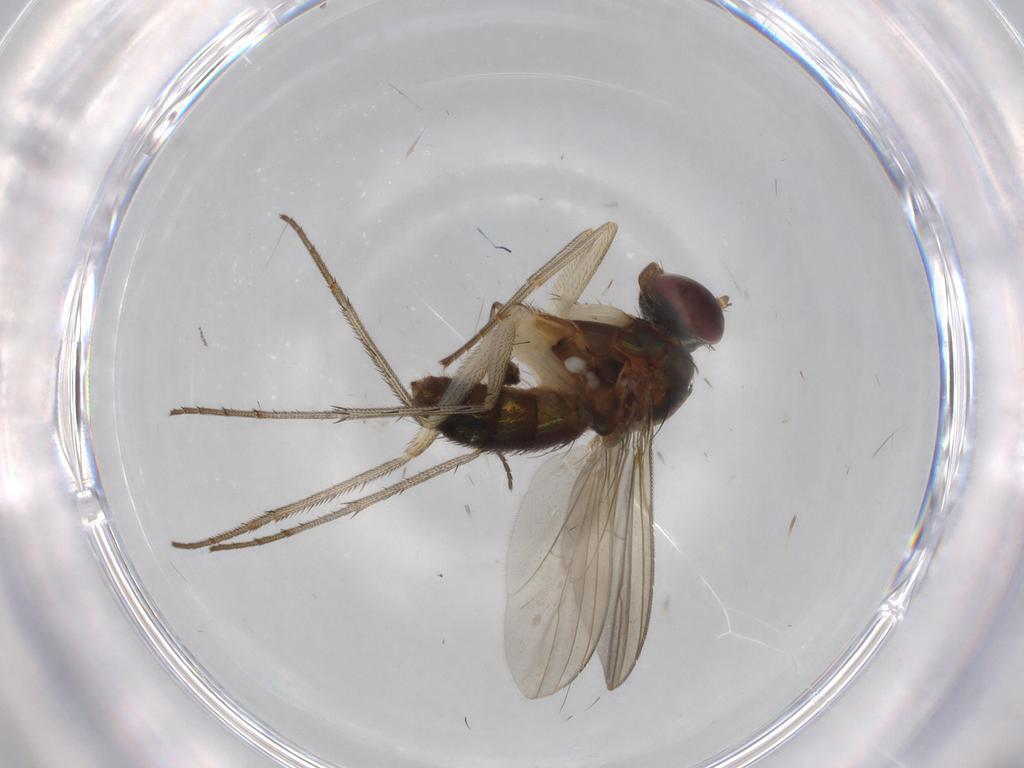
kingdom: Animalia
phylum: Arthropoda
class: Insecta
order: Diptera
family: Dolichopodidae
